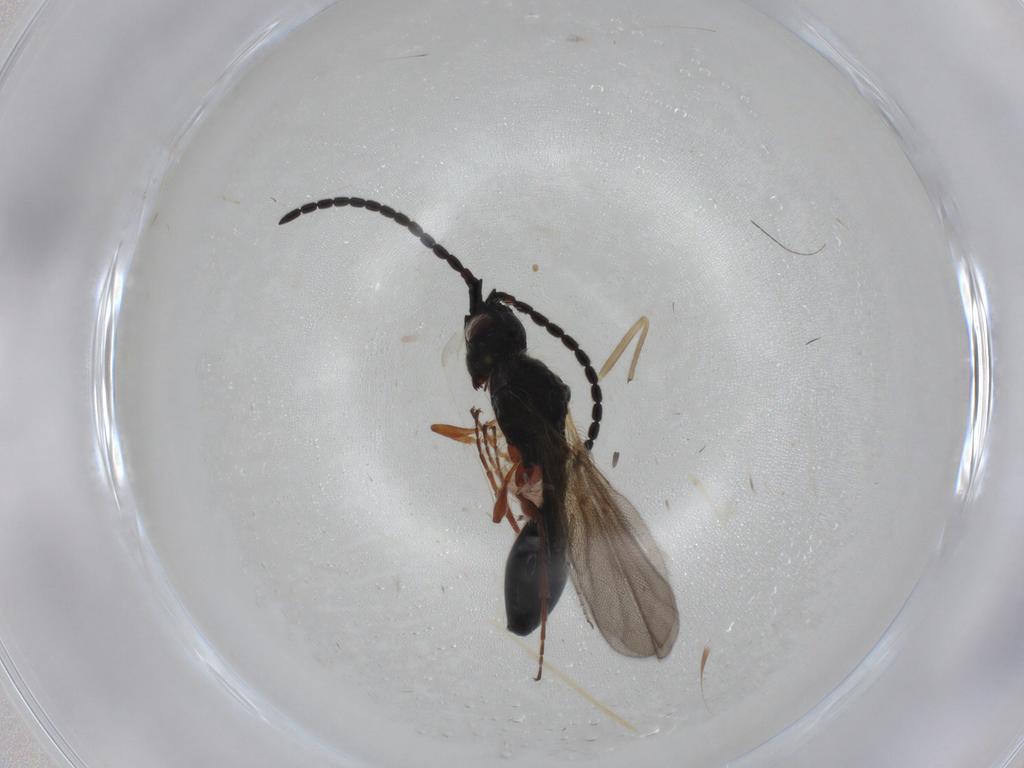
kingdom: Animalia
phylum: Arthropoda
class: Insecta
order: Hymenoptera
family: Diapriidae
